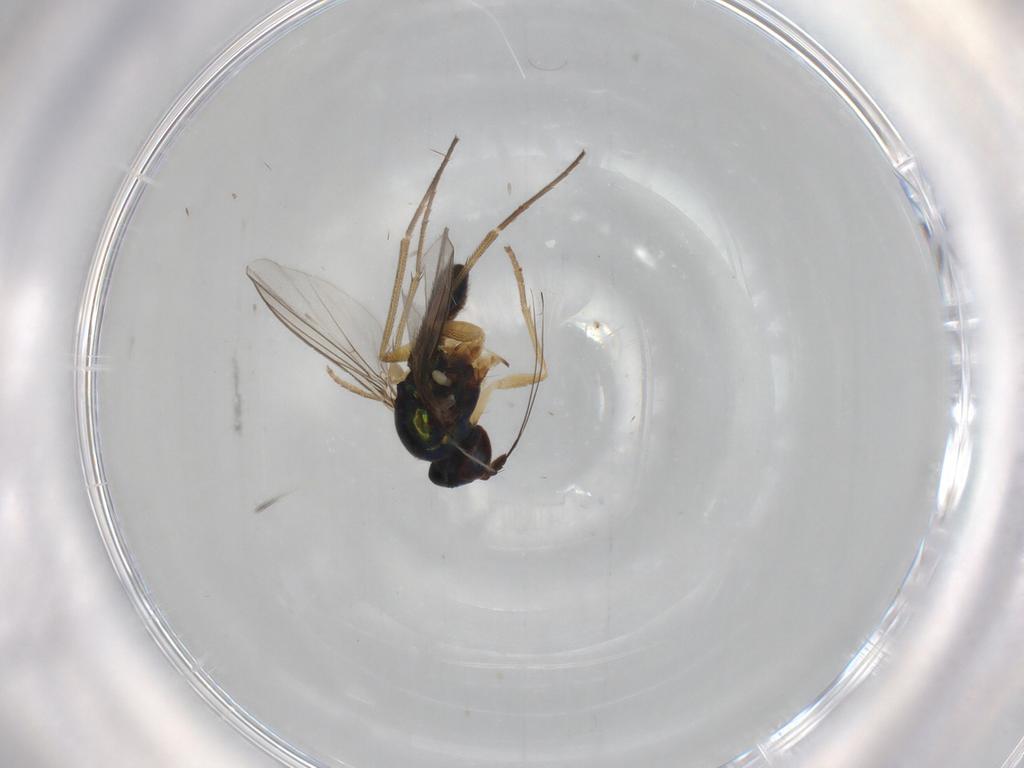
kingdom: Animalia
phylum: Arthropoda
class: Insecta
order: Diptera
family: Dolichopodidae
